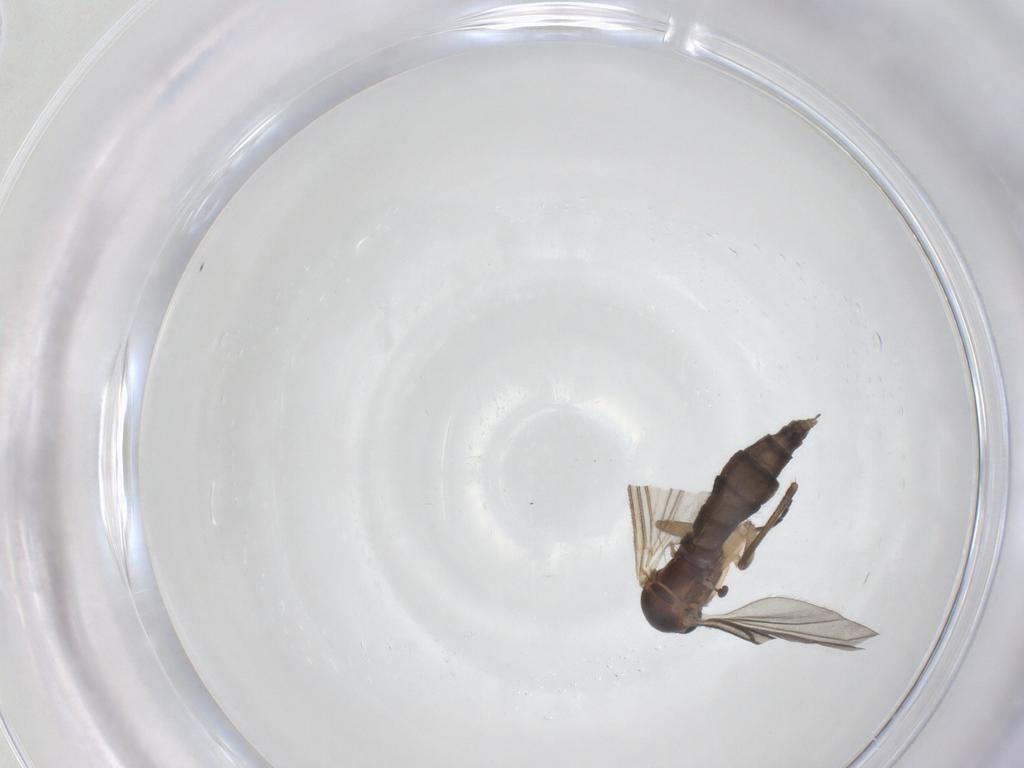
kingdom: Animalia
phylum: Arthropoda
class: Insecta
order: Diptera
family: Sciaridae
